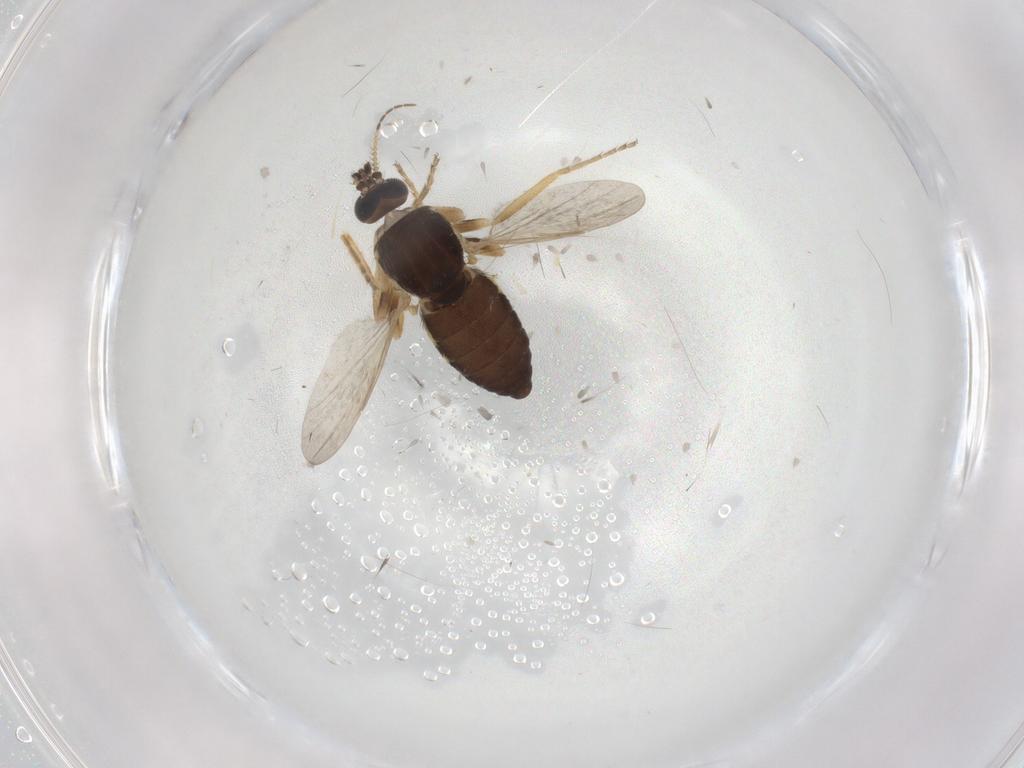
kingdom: Animalia
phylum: Arthropoda
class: Insecta
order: Diptera
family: Ceratopogonidae
